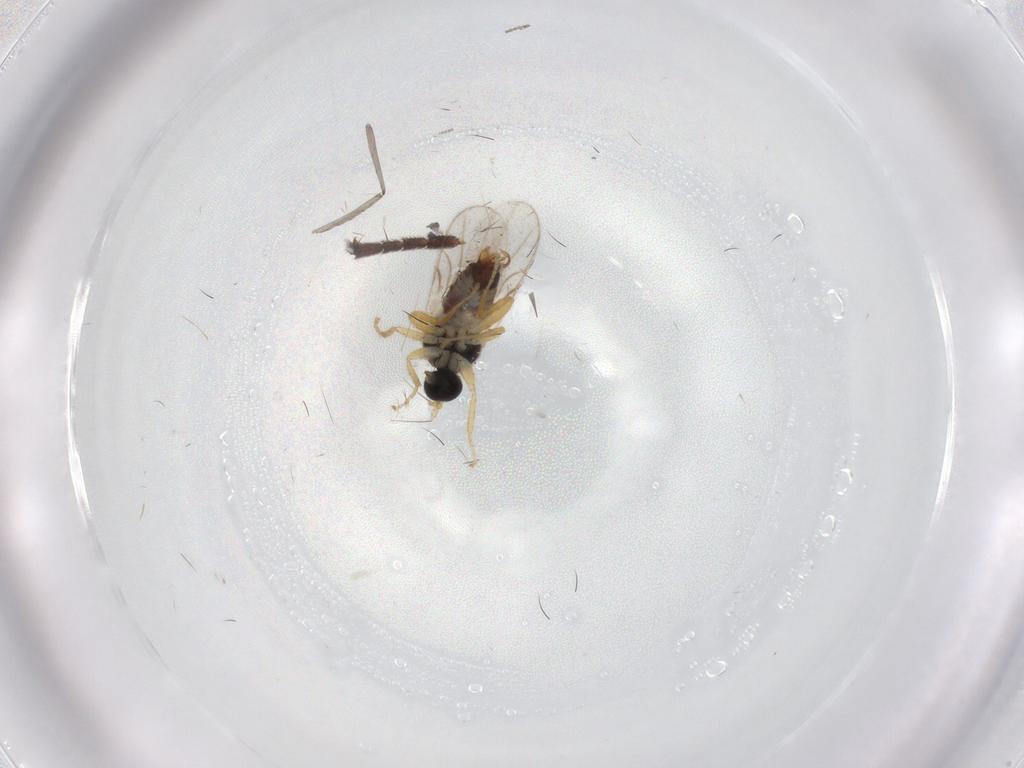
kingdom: Animalia
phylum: Arthropoda
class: Insecta
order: Diptera
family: Hybotidae
